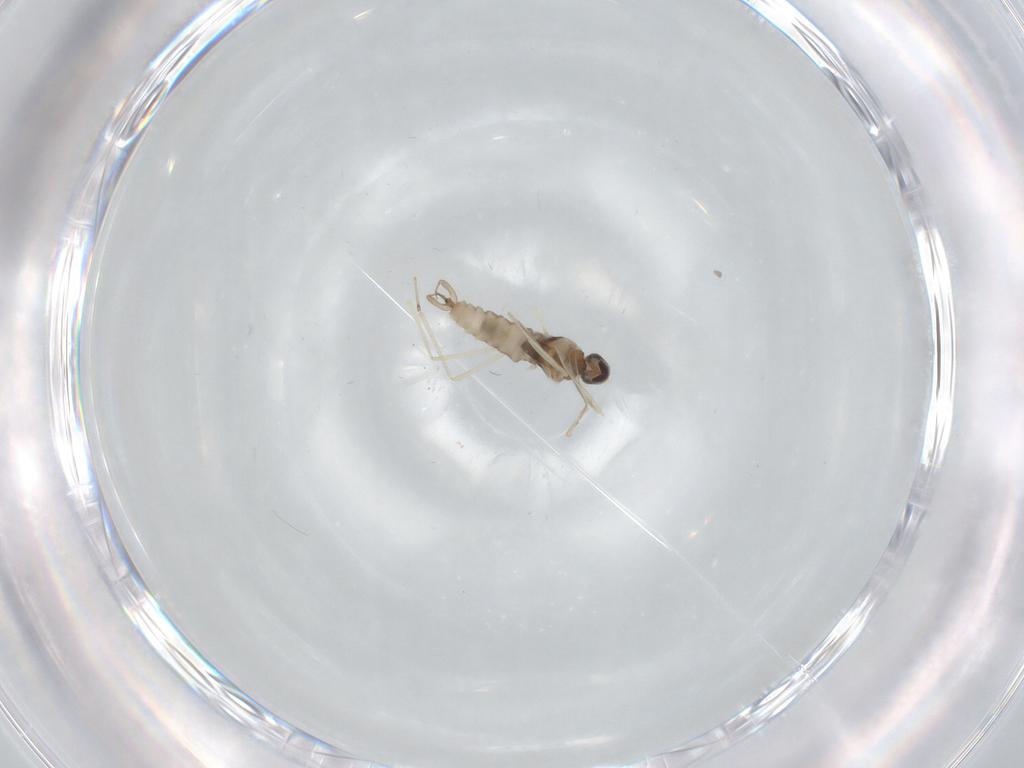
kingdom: Animalia
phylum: Arthropoda
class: Insecta
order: Diptera
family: Cecidomyiidae
